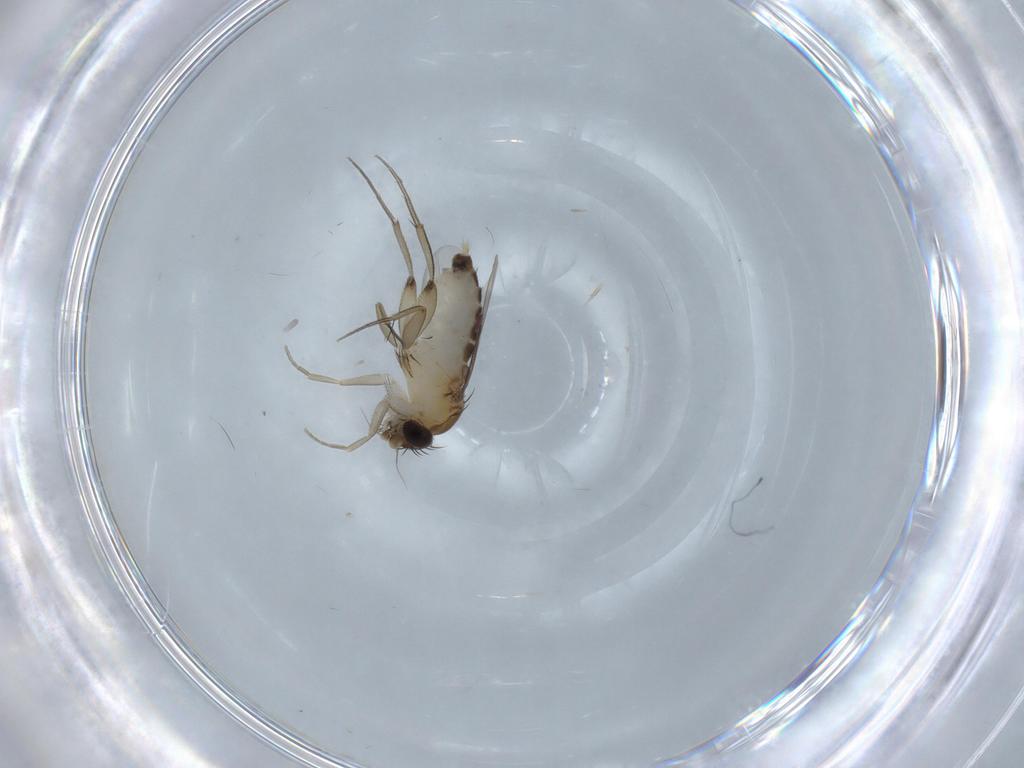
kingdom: Animalia
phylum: Arthropoda
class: Insecta
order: Diptera
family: Phoridae
